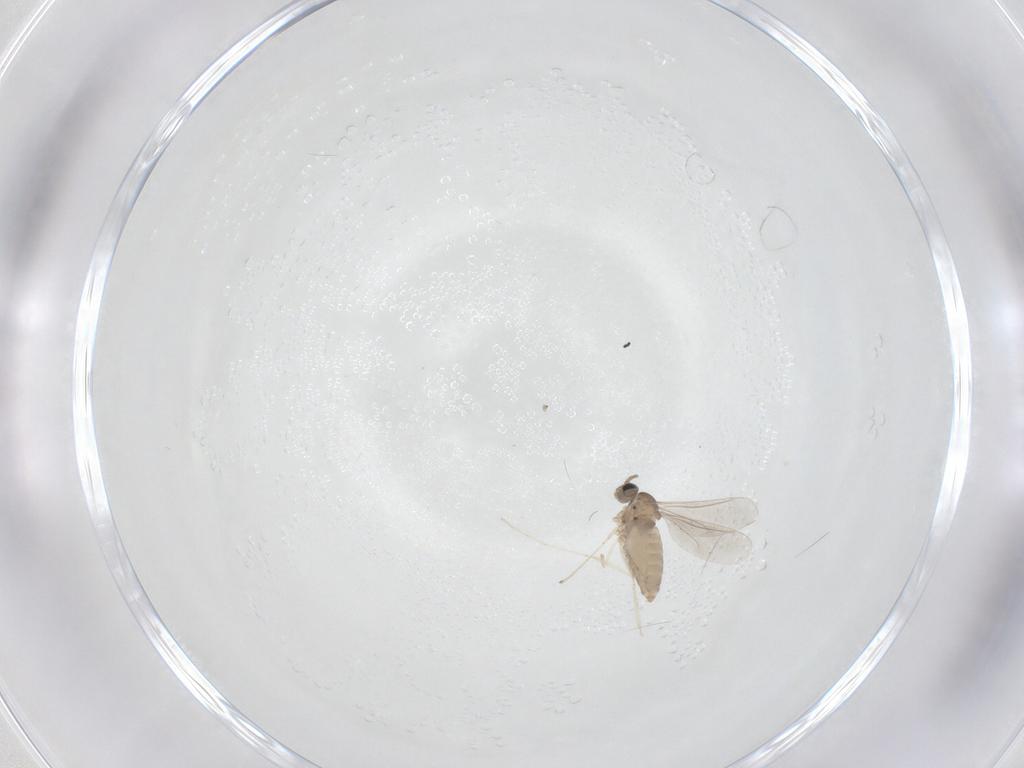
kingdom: Animalia
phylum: Arthropoda
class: Insecta
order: Diptera
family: Cecidomyiidae
